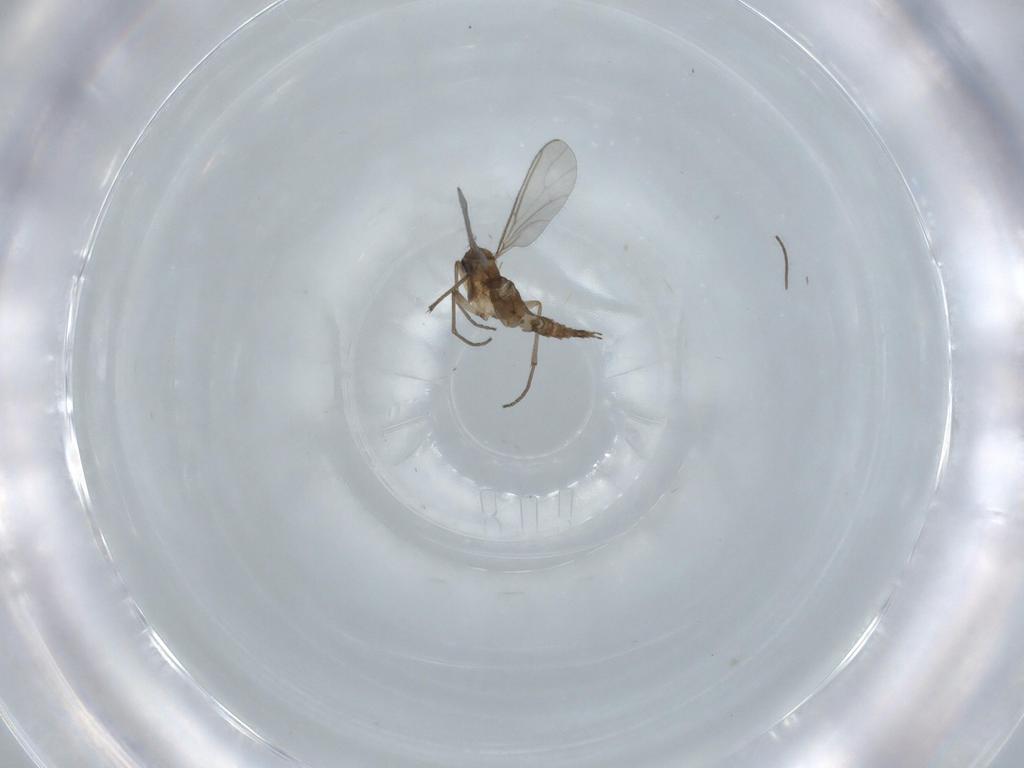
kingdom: Animalia
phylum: Arthropoda
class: Insecta
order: Diptera
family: Sciaridae
